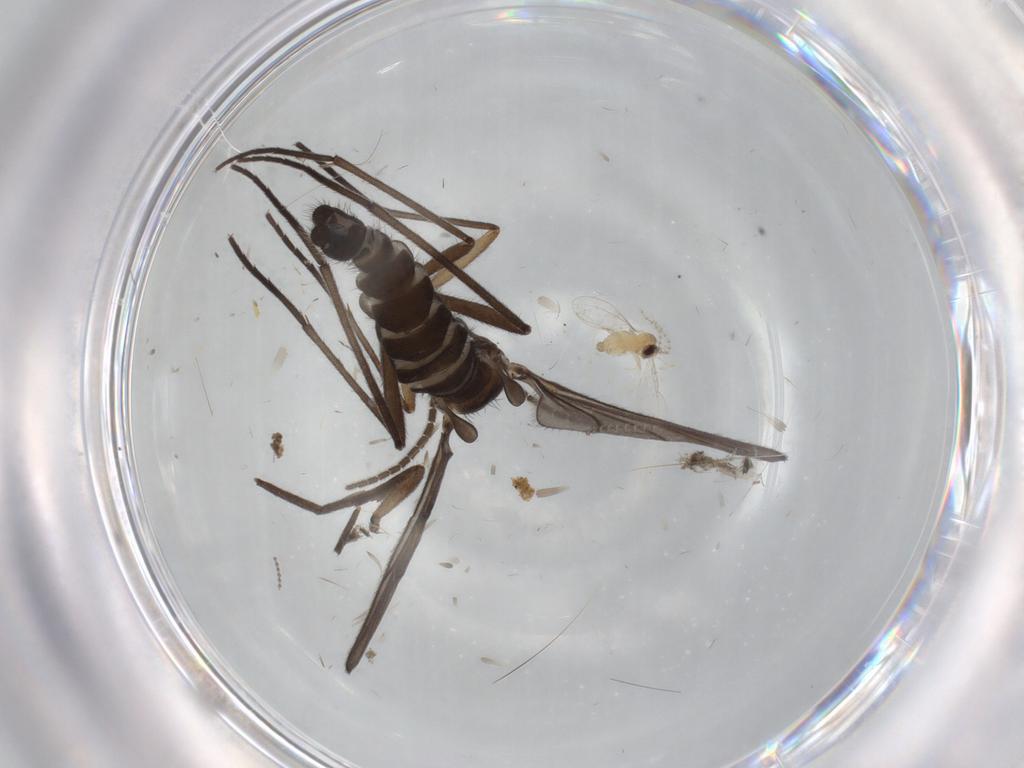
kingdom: Animalia
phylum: Arthropoda
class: Insecta
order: Diptera
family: Sciaridae
